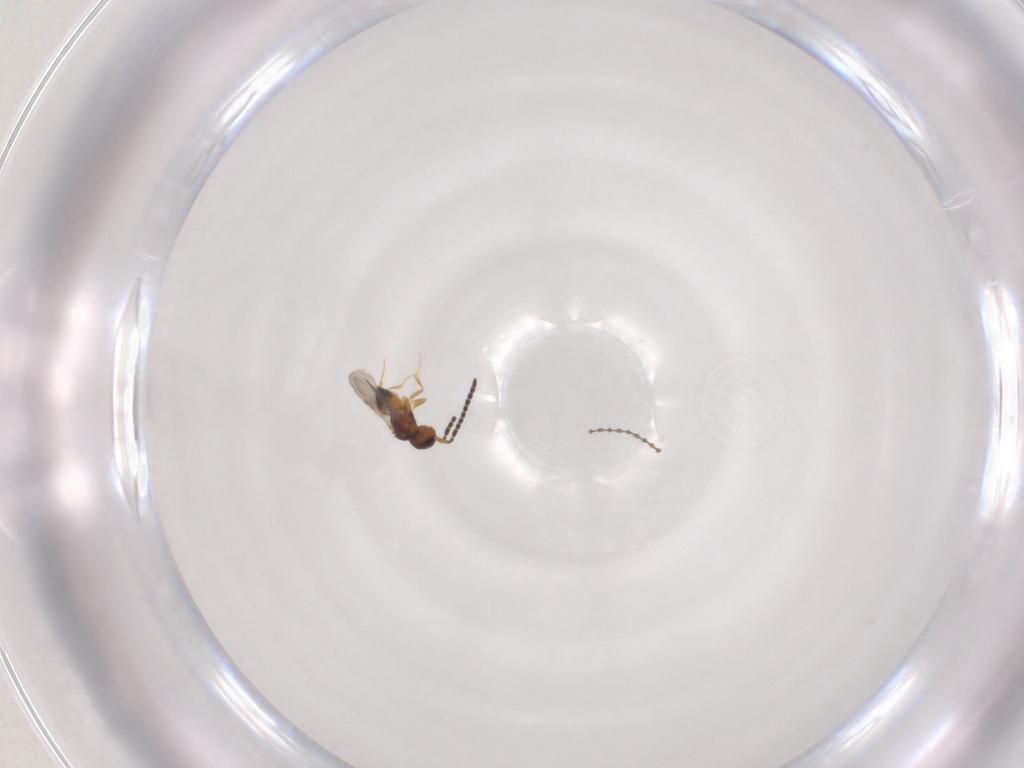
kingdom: Animalia
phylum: Arthropoda
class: Insecta
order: Hymenoptera
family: Ceraphronidae
